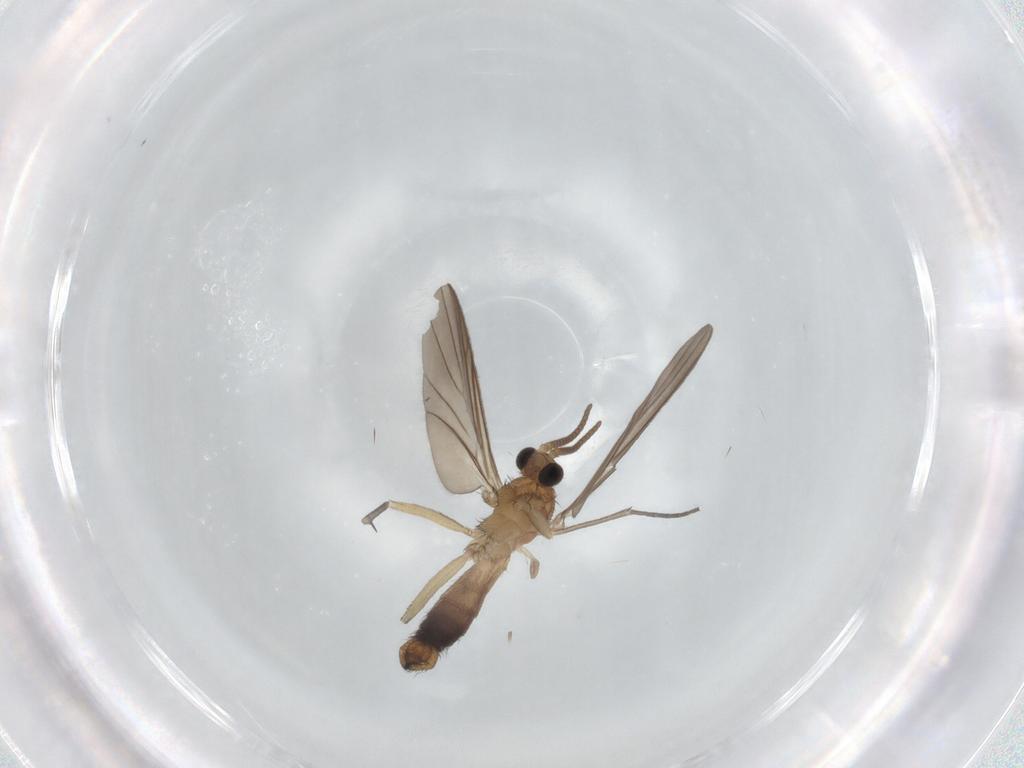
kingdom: Animalia
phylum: Arthropoda
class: Insecta
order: Diptera
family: Keroplatidae
